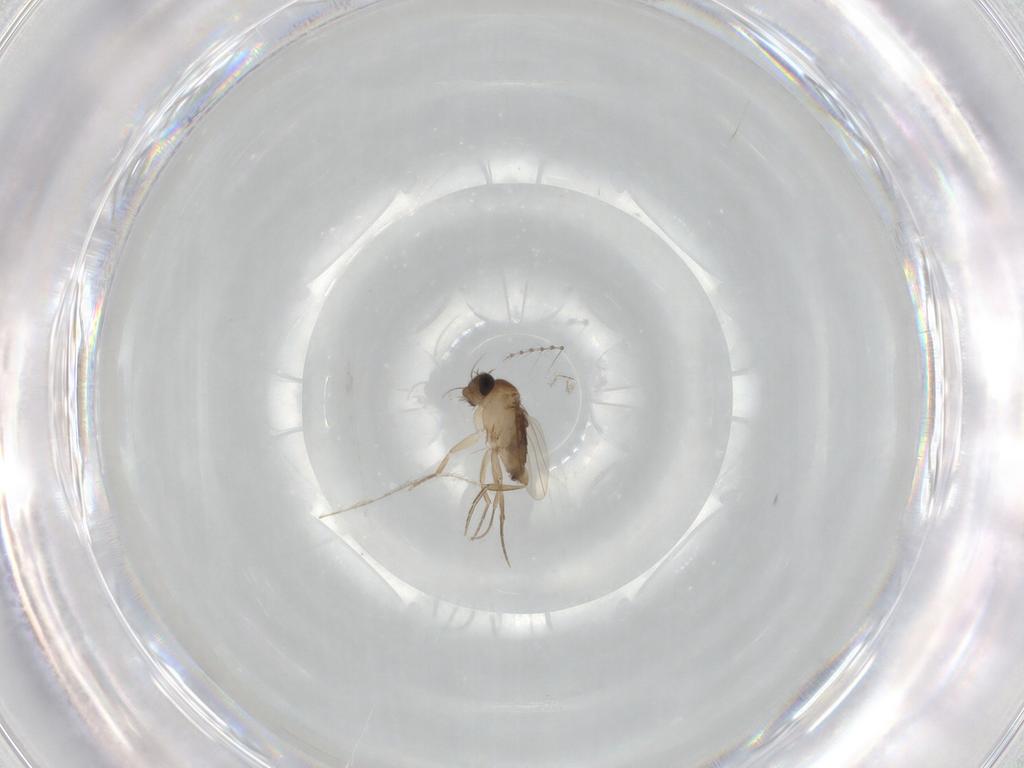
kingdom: Animalia
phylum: Arthropoda
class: Insecta
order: Diptera
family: Phoridae
